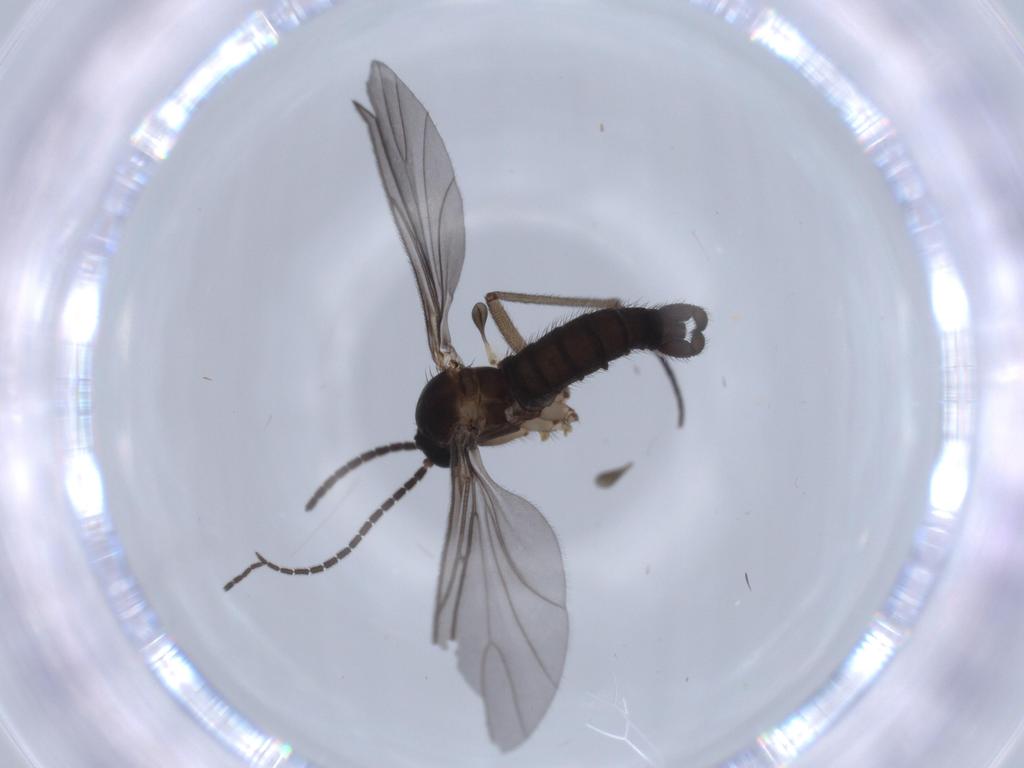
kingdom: Animalia
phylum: Arthropoda
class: Insecta
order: Diptera
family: Sciaridae
